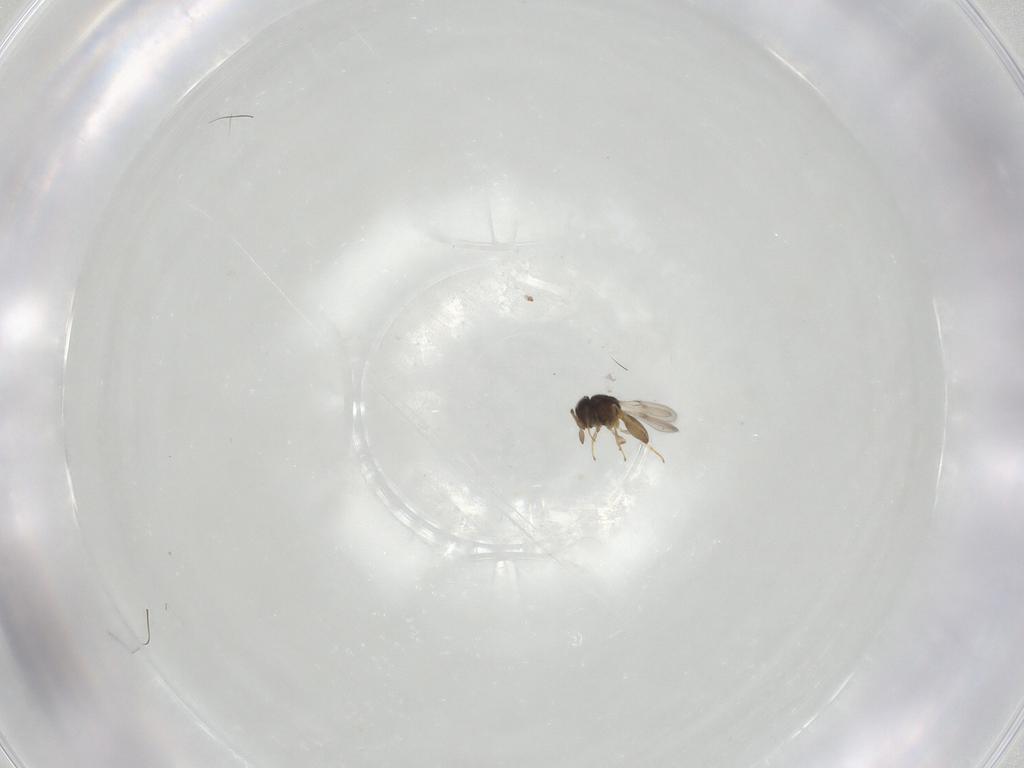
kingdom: Animalia
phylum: Arthropoda
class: Insecta
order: Hymenoptera
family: Scelionidae
